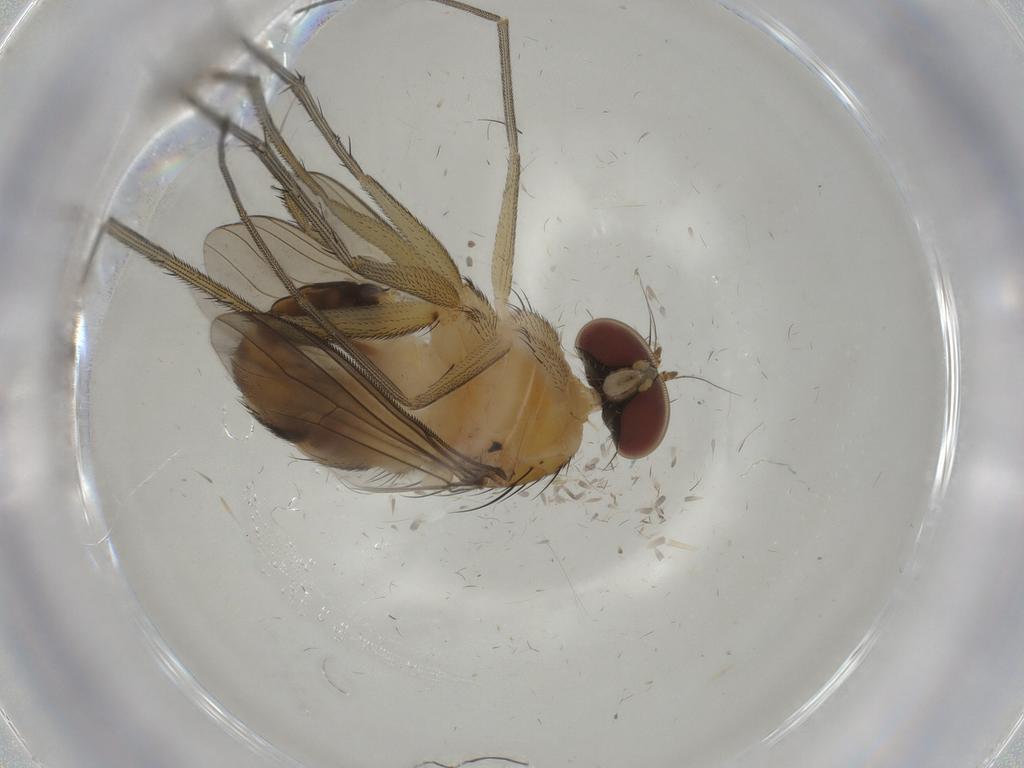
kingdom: Animalia
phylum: Arthropoda
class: Insecta
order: Diptera
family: Dolichopodidae
